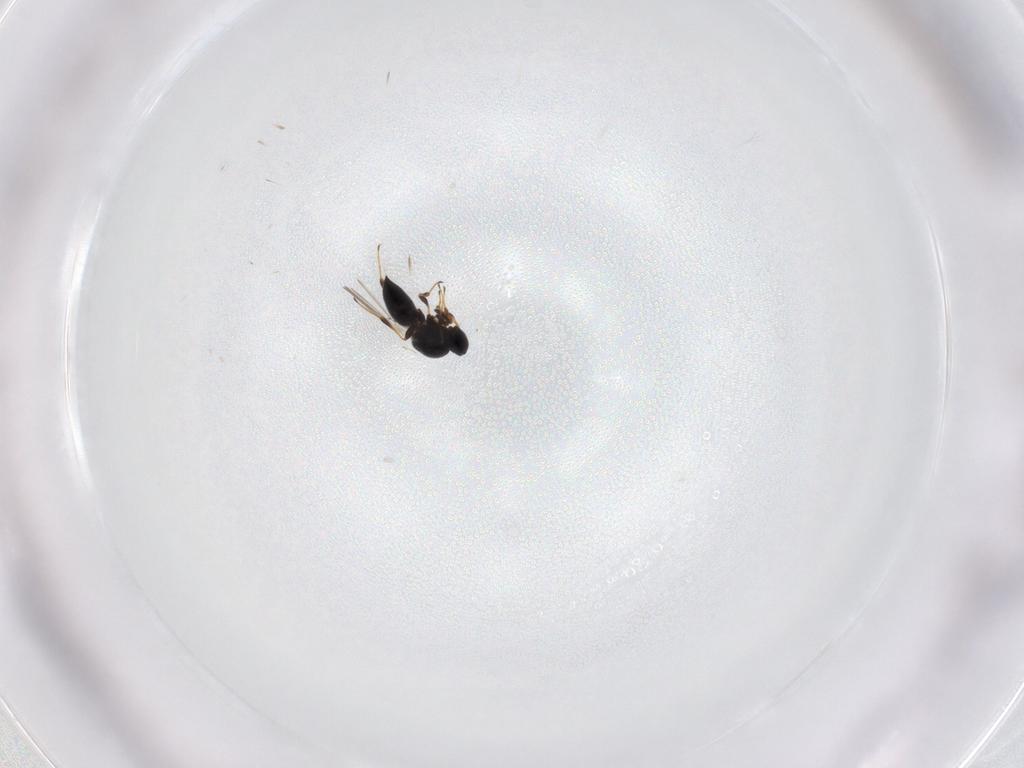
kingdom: Animalia
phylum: Arthropoda
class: Insecta
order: Hymenoptera
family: Platygastridae
